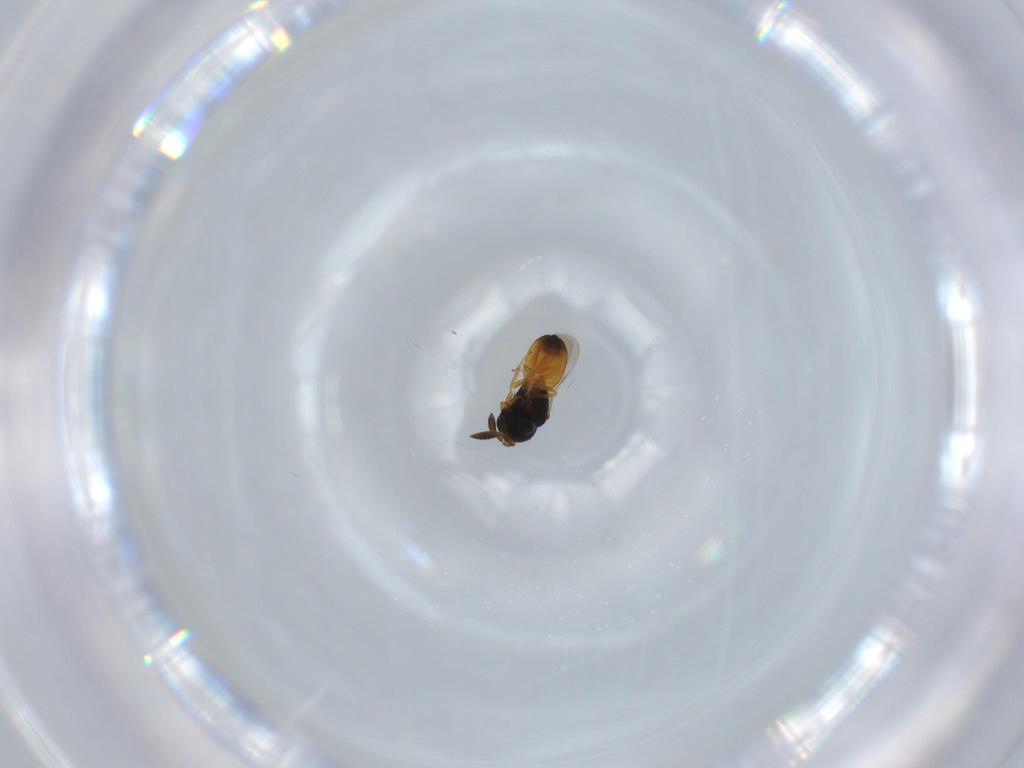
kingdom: Animalia
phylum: Arthropoda
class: Insecta
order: Hymenoptera
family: Scelionidae
